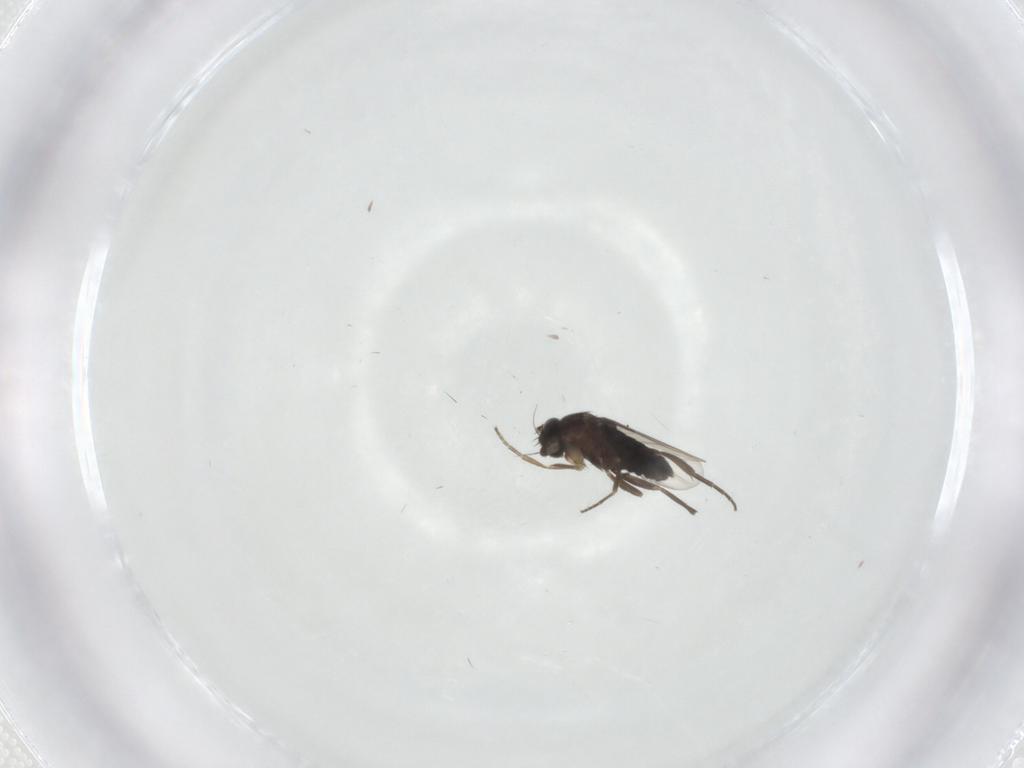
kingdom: Animalia
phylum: Arthropoda
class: Insecta
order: Diptera
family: Phoridae
